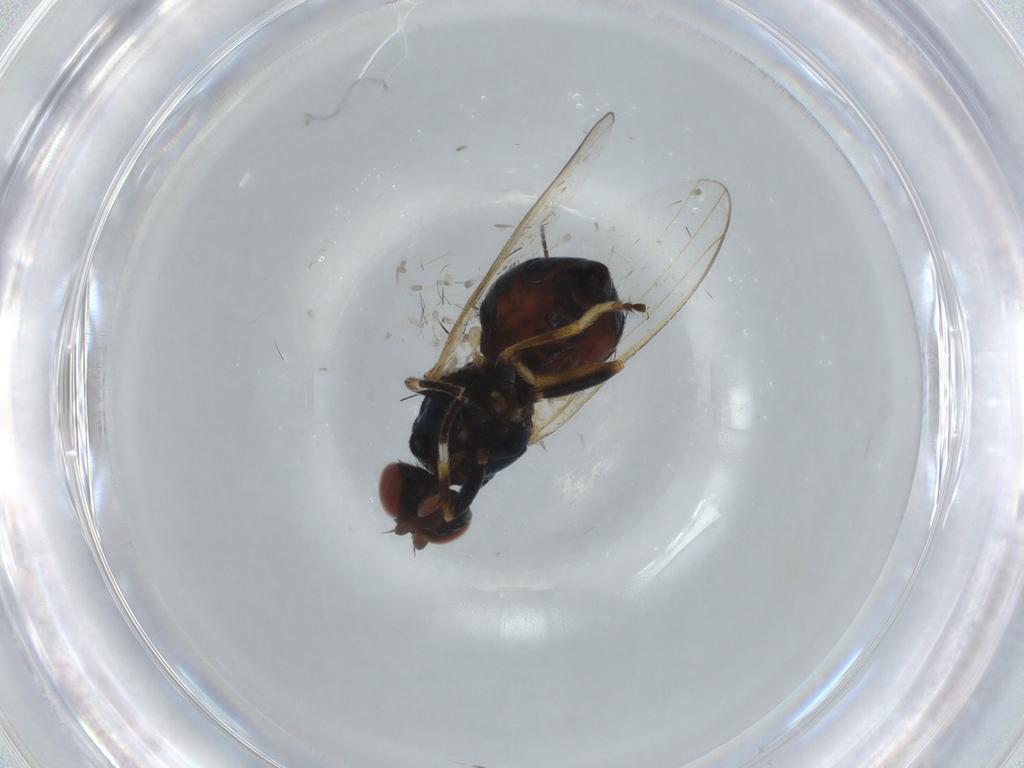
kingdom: Animalia
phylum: Arthropoda
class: Insecta
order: Diptera
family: Piophilidae
